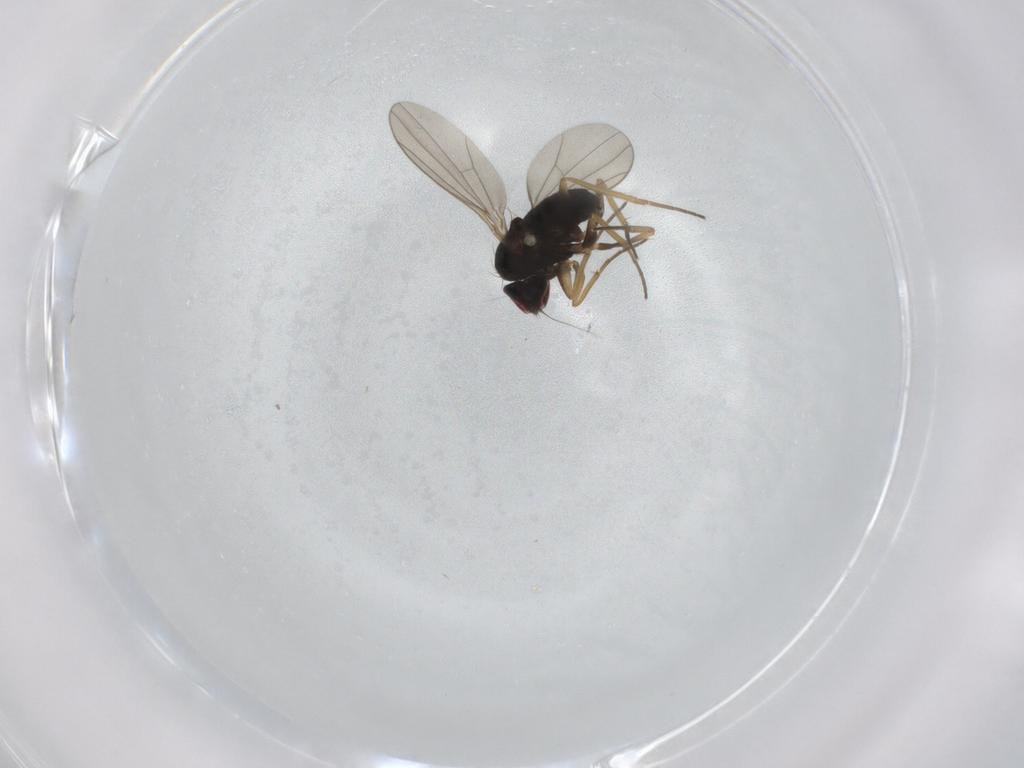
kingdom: Animalia
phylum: Arthropoda
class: Insecta
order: Diptera
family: Dolichopodidae
